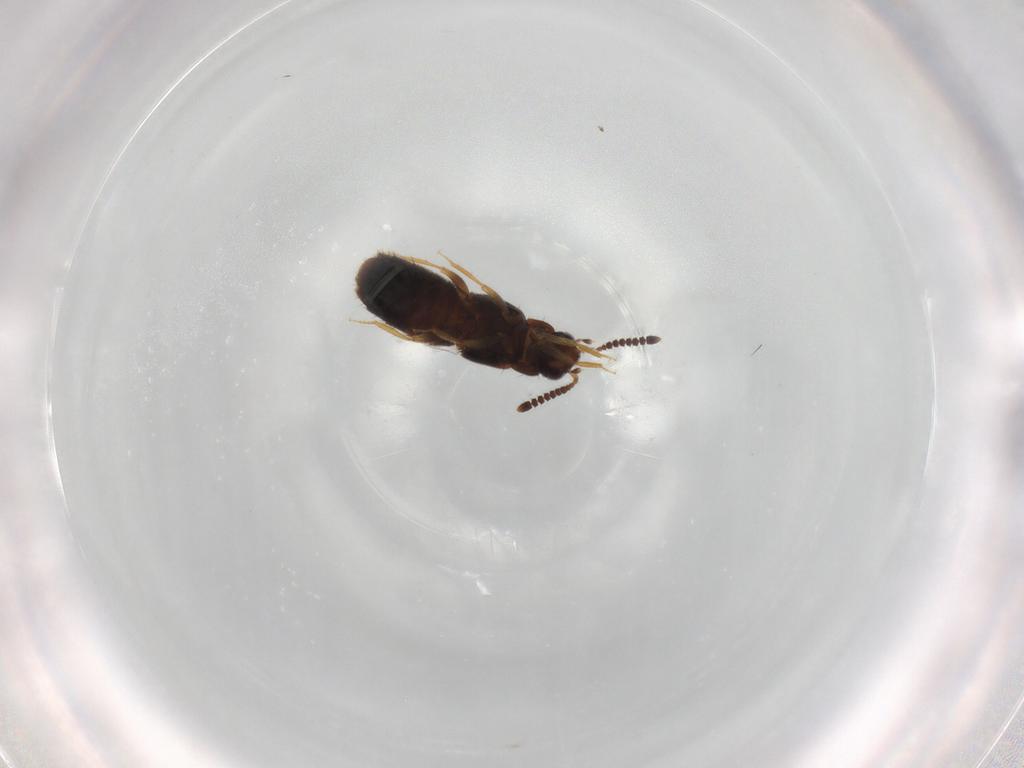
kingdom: Animalia
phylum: Arthropoda
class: Insecta
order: Coleoptera
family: Staphylinidae
